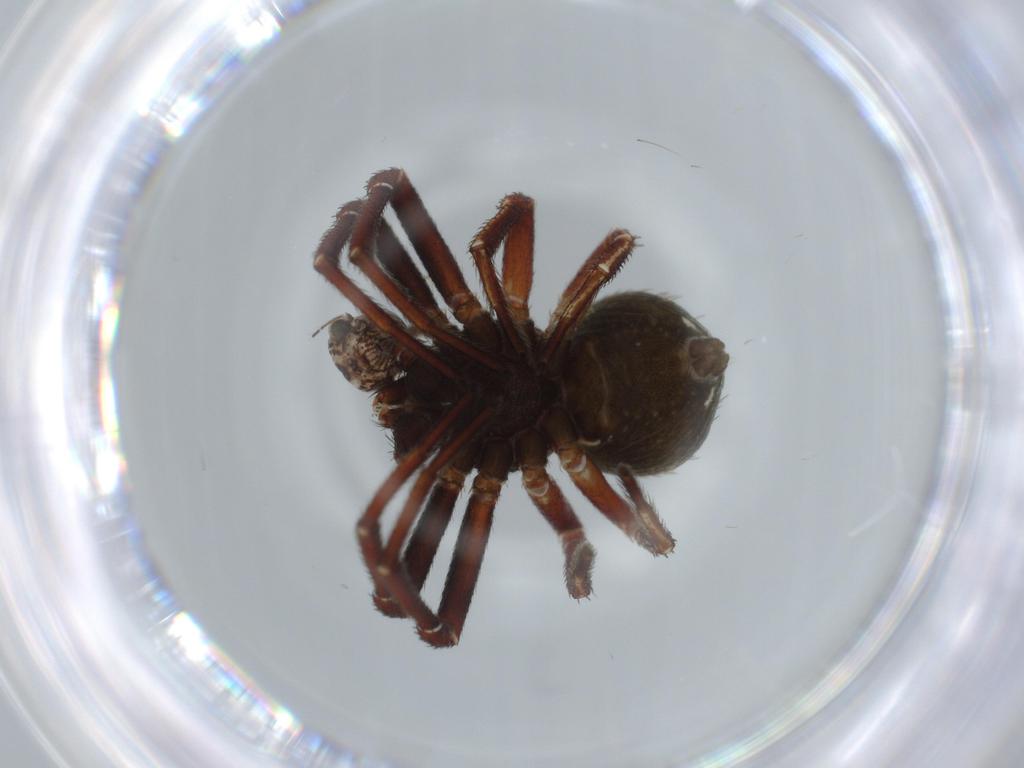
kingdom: Animalia
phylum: Arthropoda
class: Arachnida
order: Araneae
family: Thomisidae
